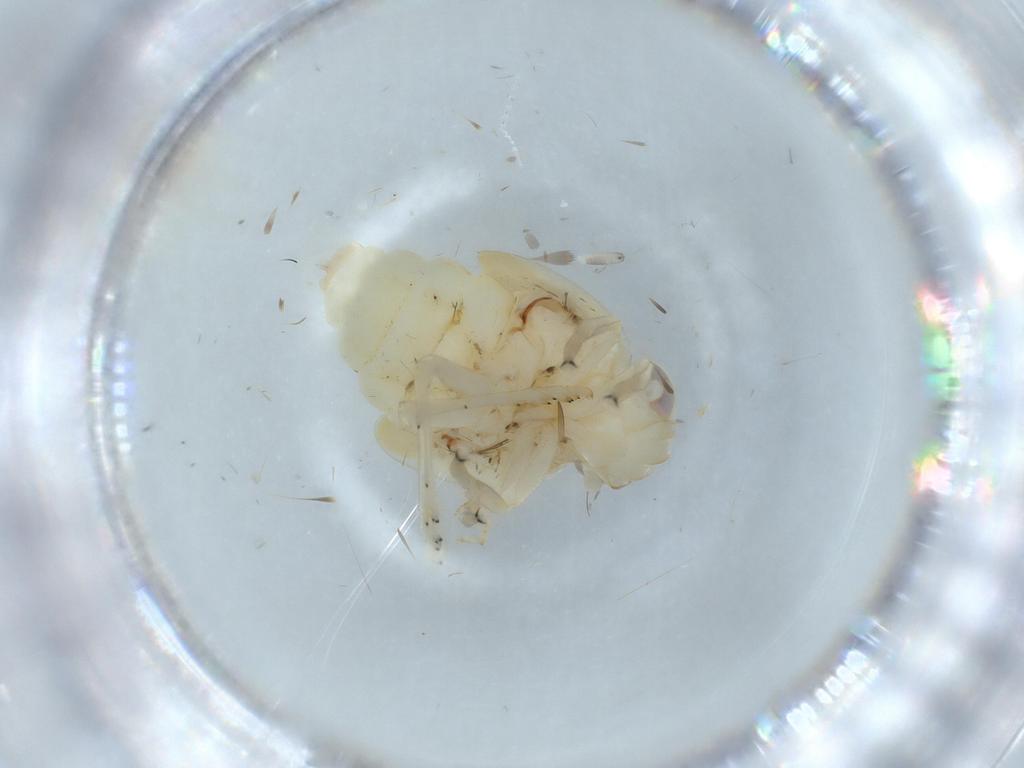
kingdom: Animalia
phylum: Arthropoda
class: Insecta
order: Hemiptera
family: Nogodinidae
